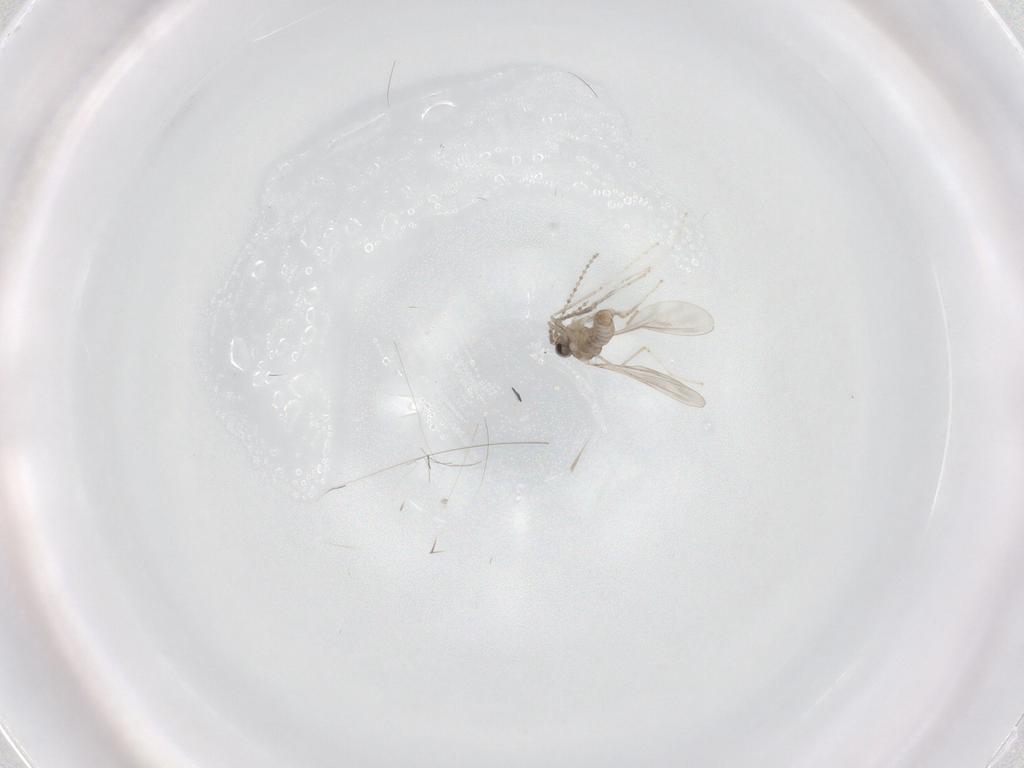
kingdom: Animalia
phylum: Arthropoda
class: Insecta
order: Diptera
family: Cecidomyiidae
